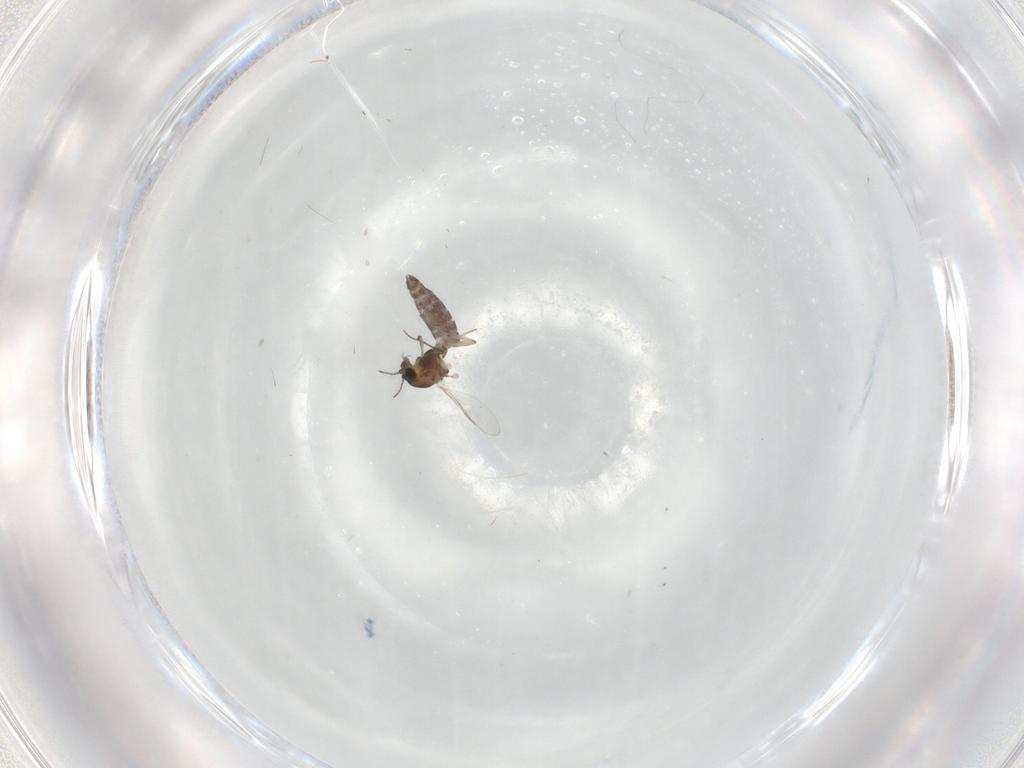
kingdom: Animalia
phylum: Arthropoda
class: Insecta
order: Diptera
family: Chironomidae
